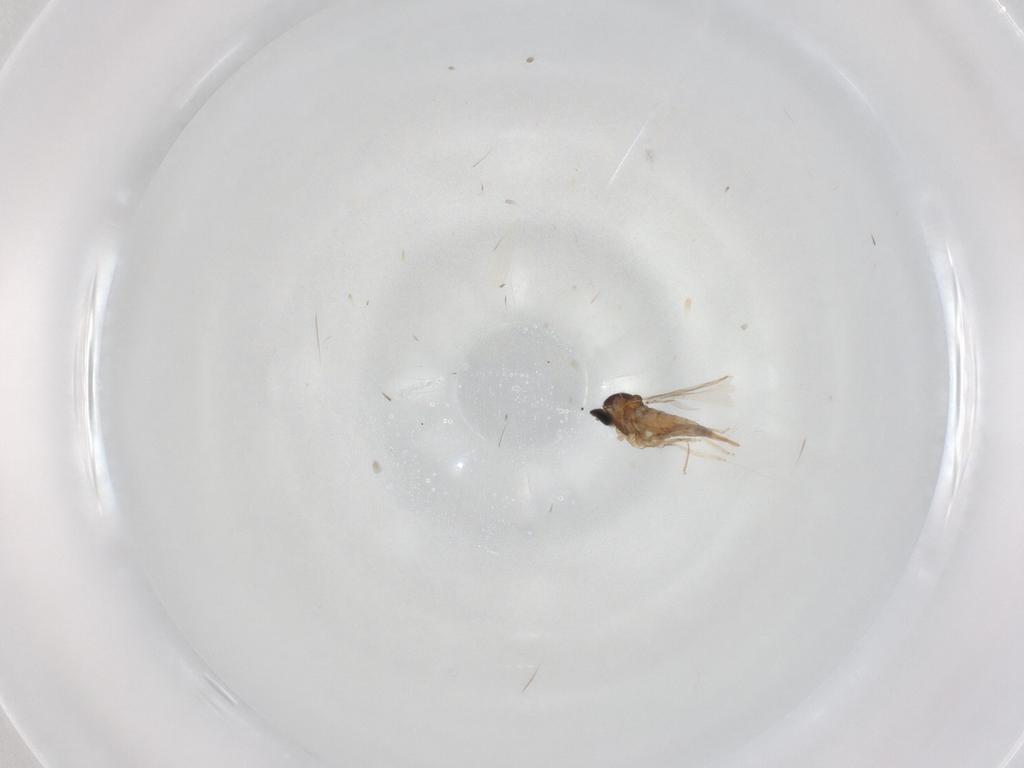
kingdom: Animalia
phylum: Arthropoda
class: Insecta
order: Diptera
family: Cecidomyiidae
